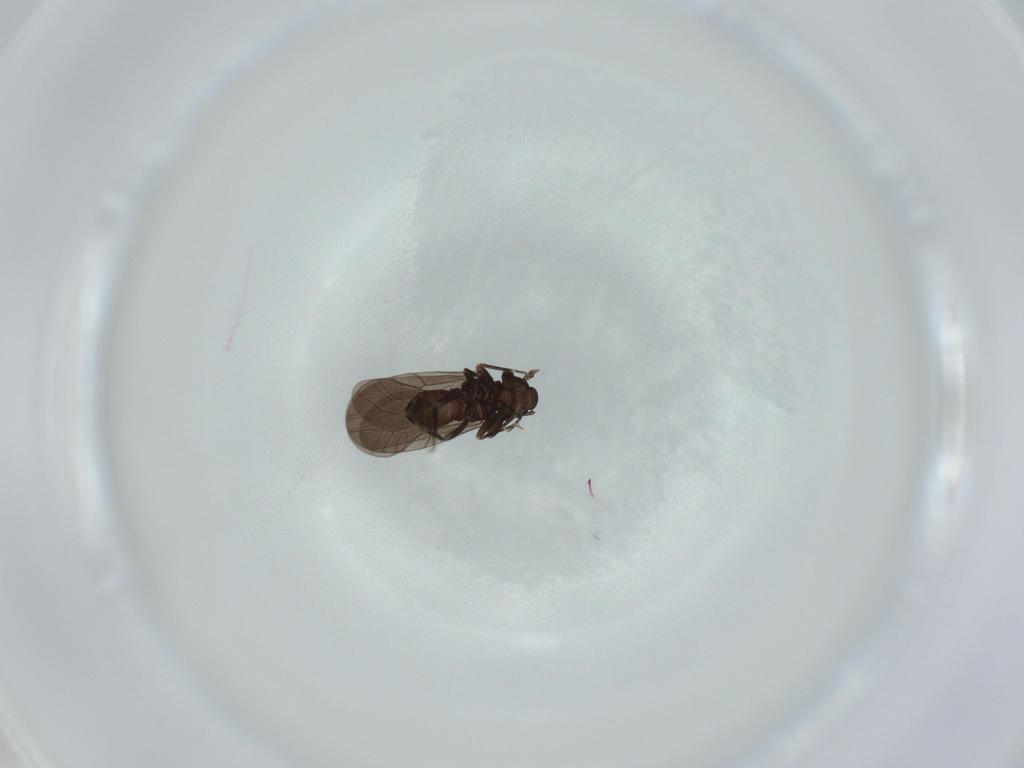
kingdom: Animalia
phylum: Arthropoda
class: Insecta
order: Psocodea
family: Lepidopsocidae
